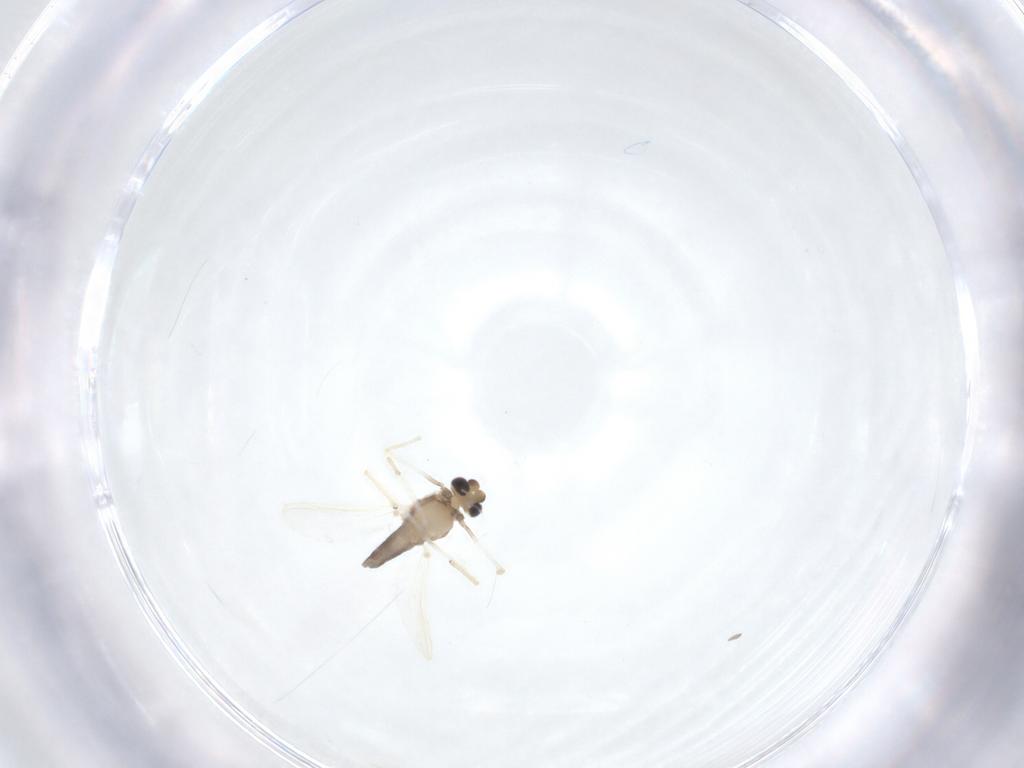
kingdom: Animalia
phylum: Arthropoda
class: Insecta
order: Diptera
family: Chironomidae
